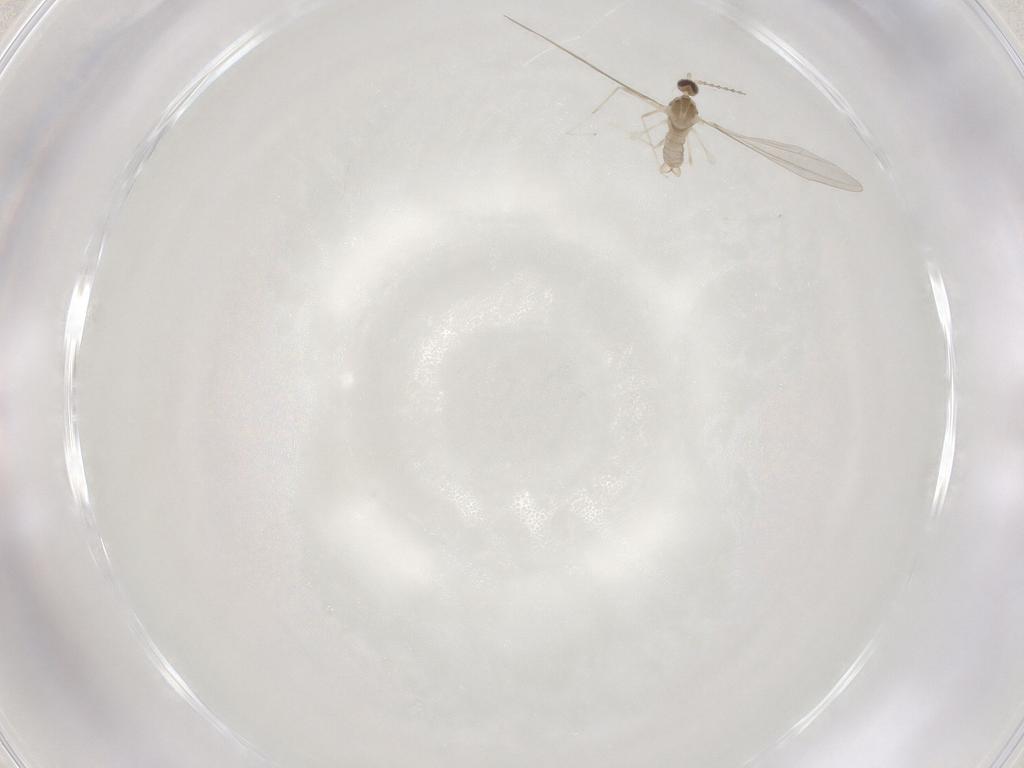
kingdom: Animalia
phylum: Arthropoda
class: Insecta
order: Diptera
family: Cecidomyiidae
